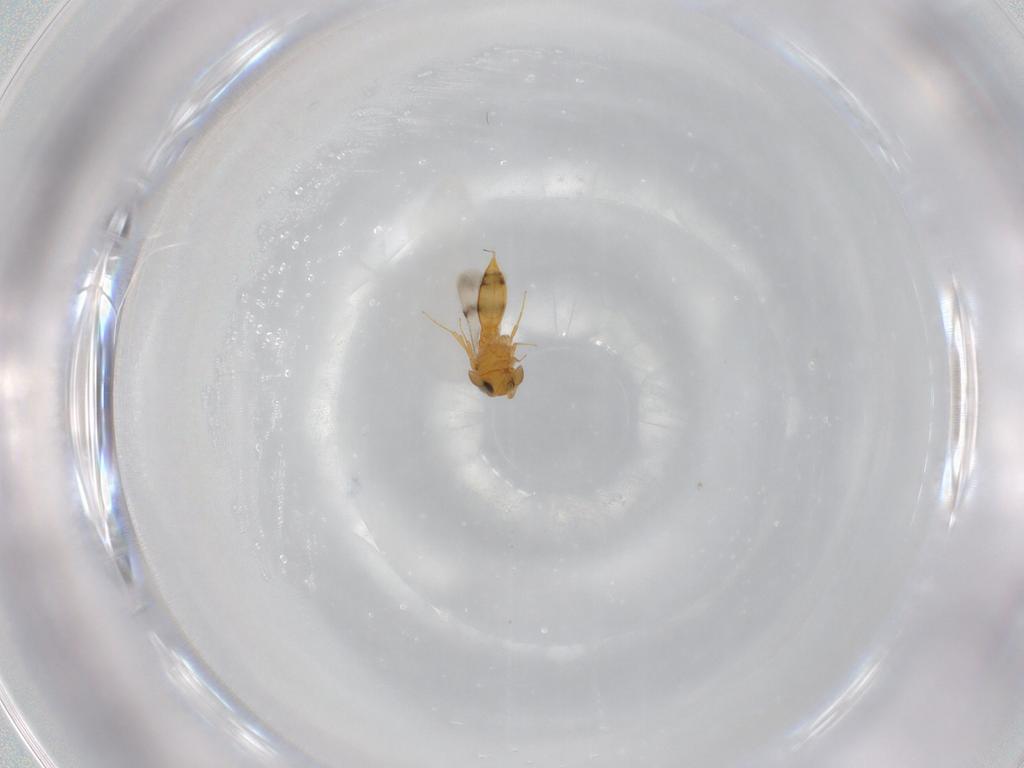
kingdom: Animalia
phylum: Arthropoda
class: Insecta
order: Hymenoptera
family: Scelionidae
